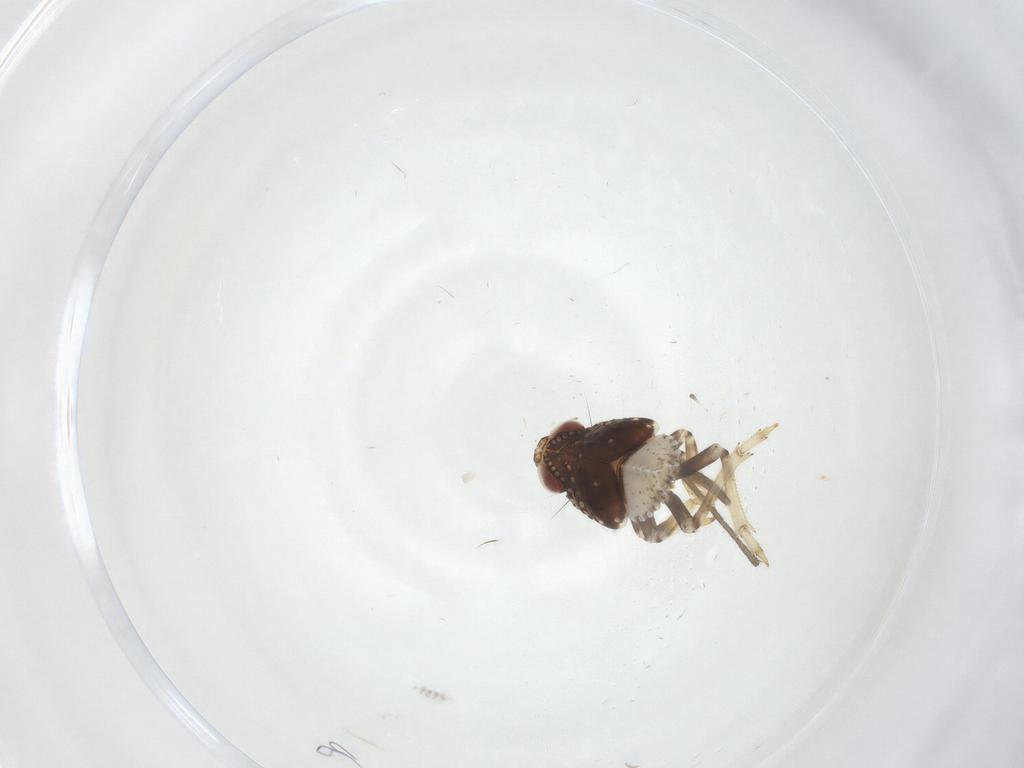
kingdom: Animalia
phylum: Arthropoda
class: Insecta
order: Hemiptera
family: Issidae
